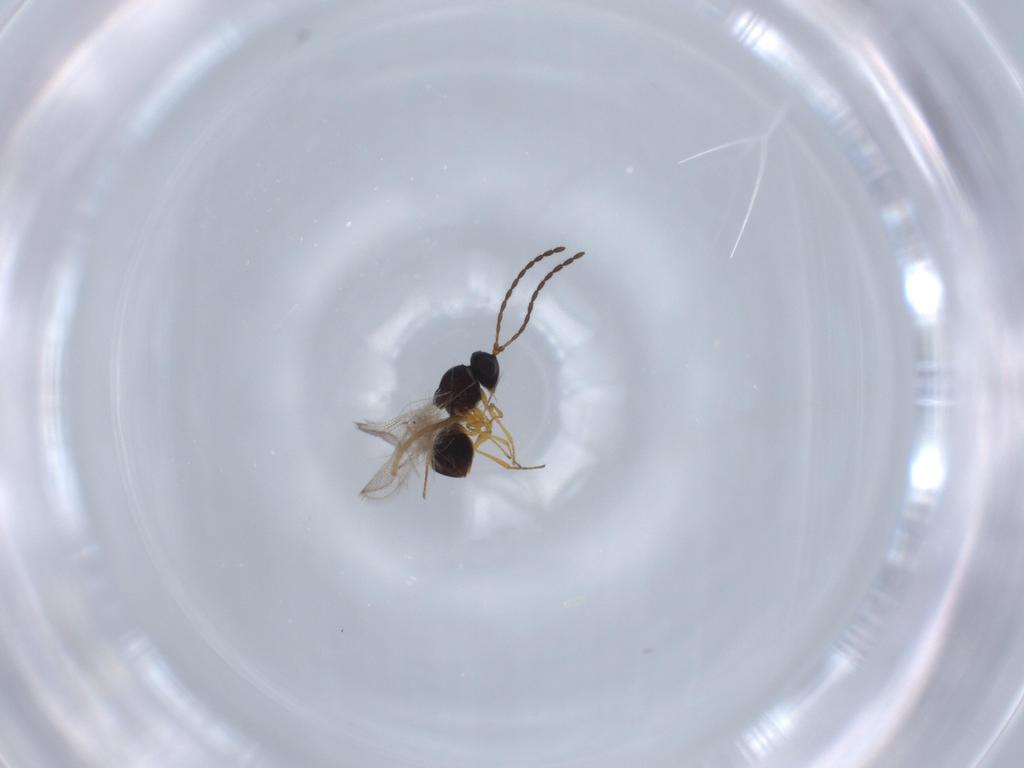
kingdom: Animalia
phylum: Arthropoda
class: Insecta
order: Hymenoptera
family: Figitidae
